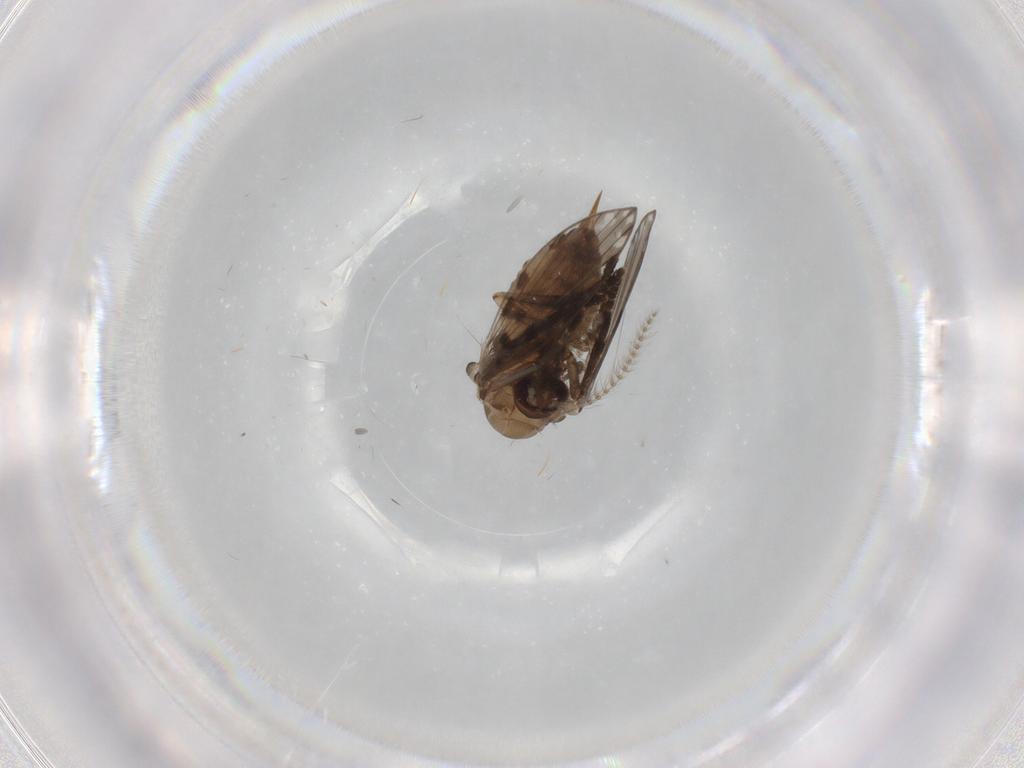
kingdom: Animalia
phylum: Arthropoda
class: Insecta
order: Diptera
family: Psychodidae
